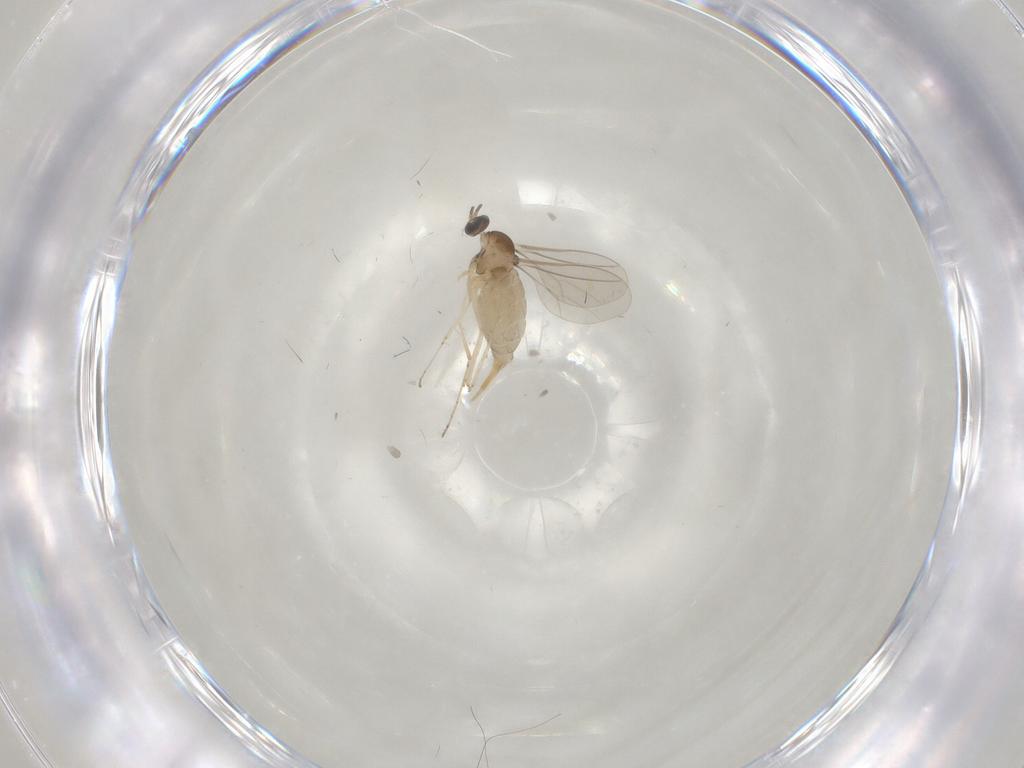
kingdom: Animalia
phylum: Arthropoda
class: Insecta
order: Diptera
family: Cecidomyiidae
